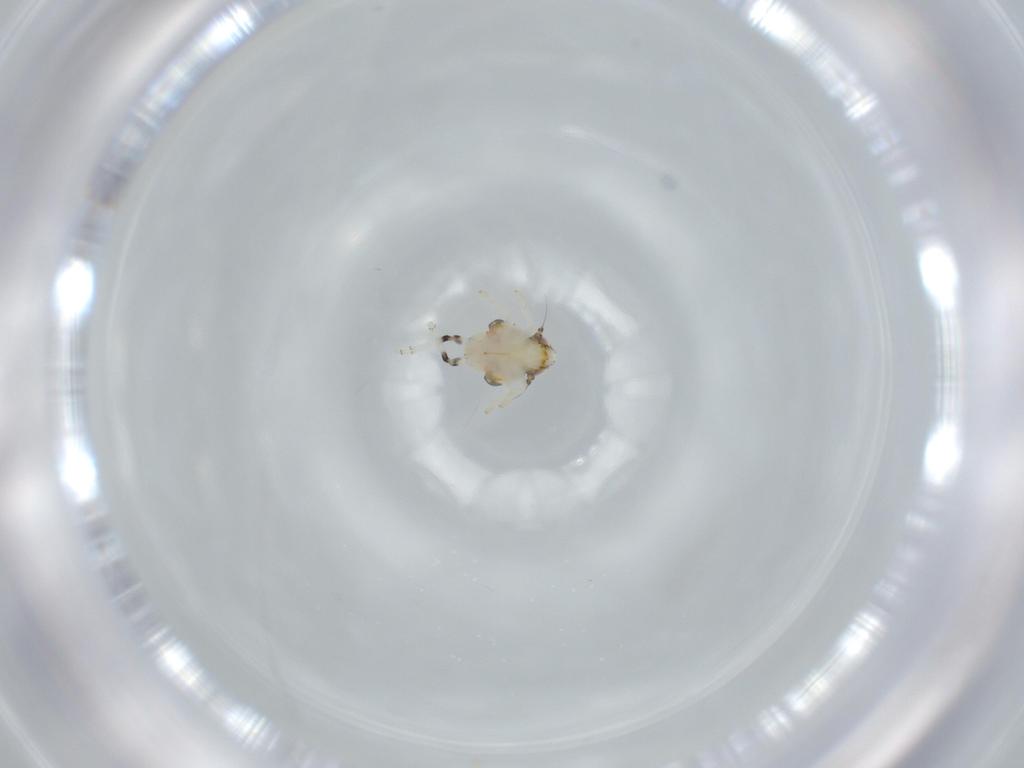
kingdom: Animalia
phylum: Arthropoda
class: Insecta
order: Hemiptera
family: Nogodinidae
